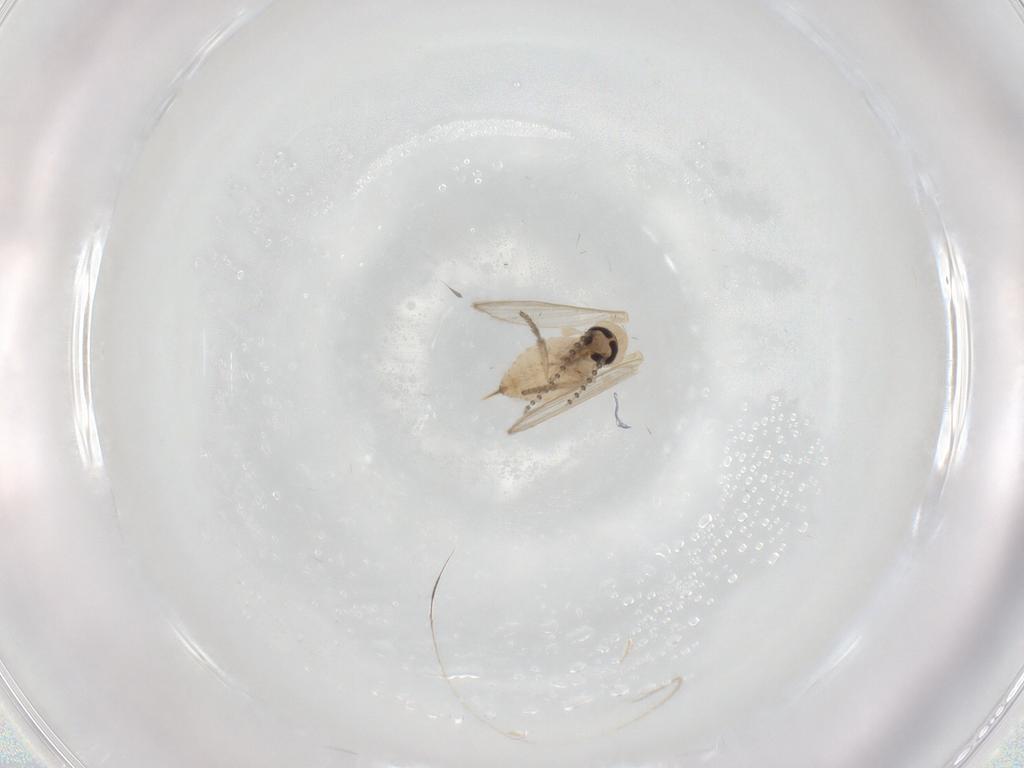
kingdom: Animalia
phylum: Arthropoda
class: Insecta
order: Diptera
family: Psychodidae
